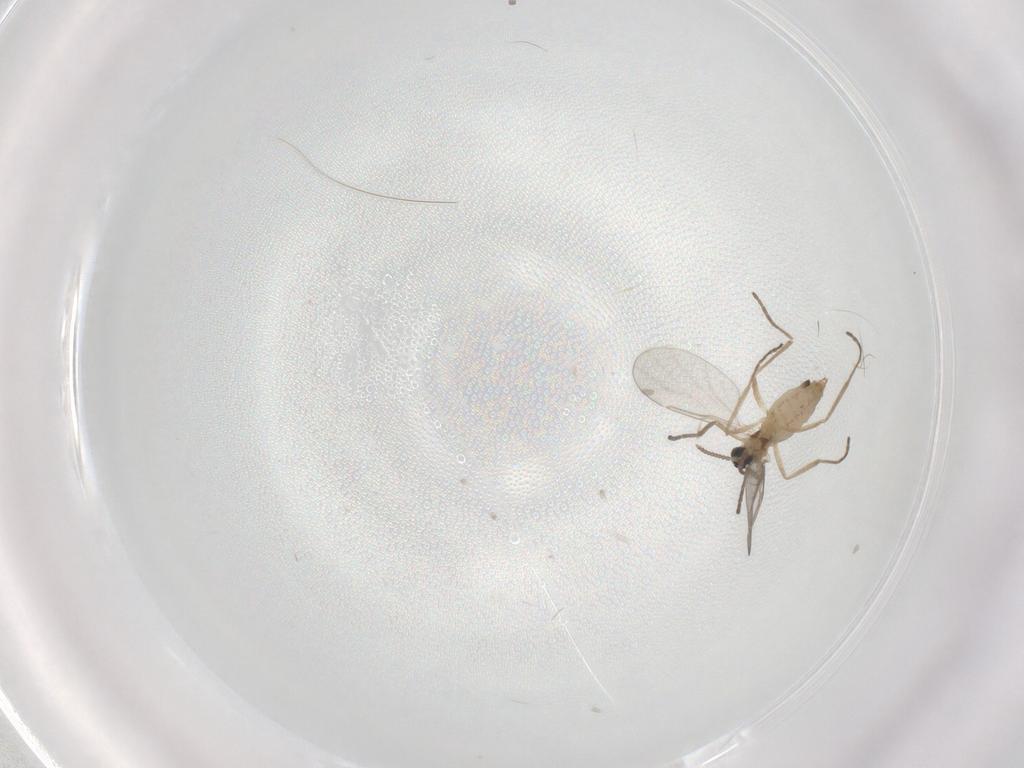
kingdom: Animalia
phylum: Arthropoda
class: Insecta
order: Diptera
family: Cecidomyiidae
